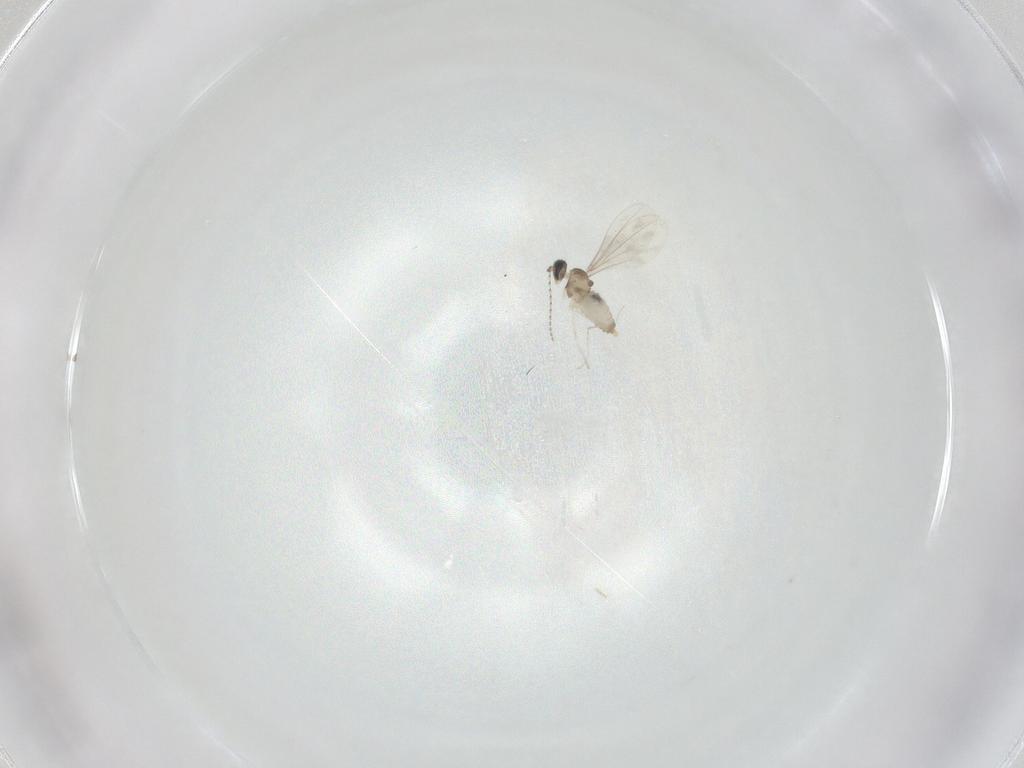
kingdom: Animalia
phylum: Arthropoda
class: Insecta
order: Diptera
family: Cecidomyiidae
